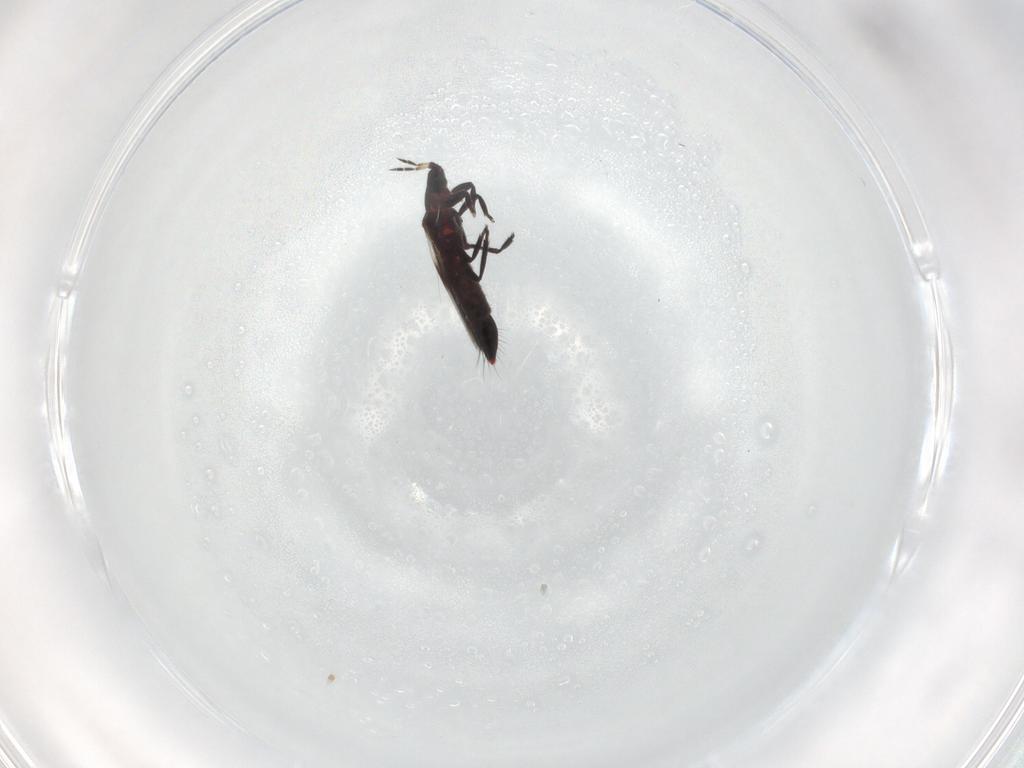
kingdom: Animalia
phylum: Arthropoda
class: Insecta
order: Thysanoptera
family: Aeolothripidae
